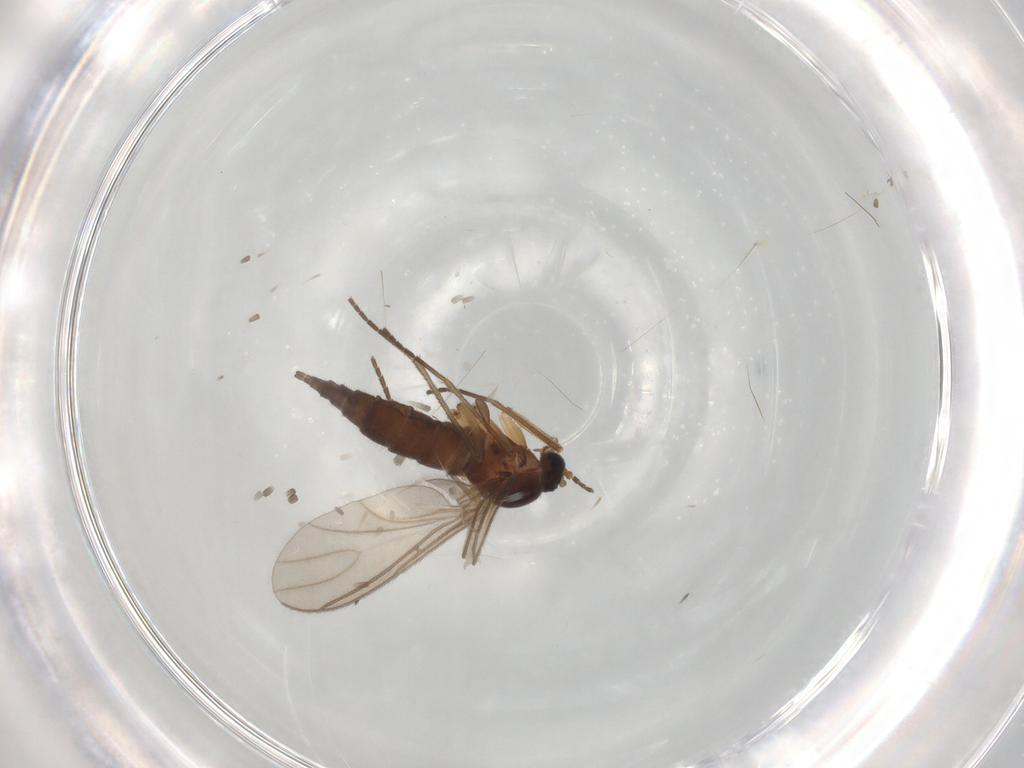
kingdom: Animalia
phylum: Arthropoda
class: Insecta
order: Diptera
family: Sciaridae
